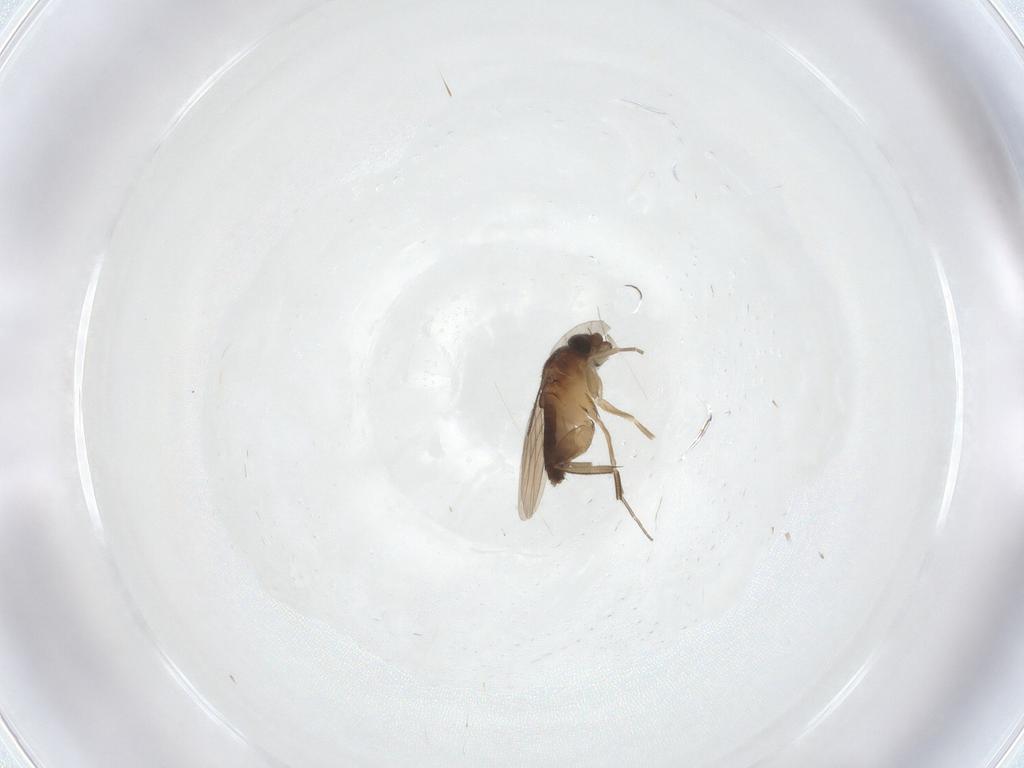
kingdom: Animalia
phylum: Arthropoda
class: Insecta
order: Diptera
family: Phoridae
